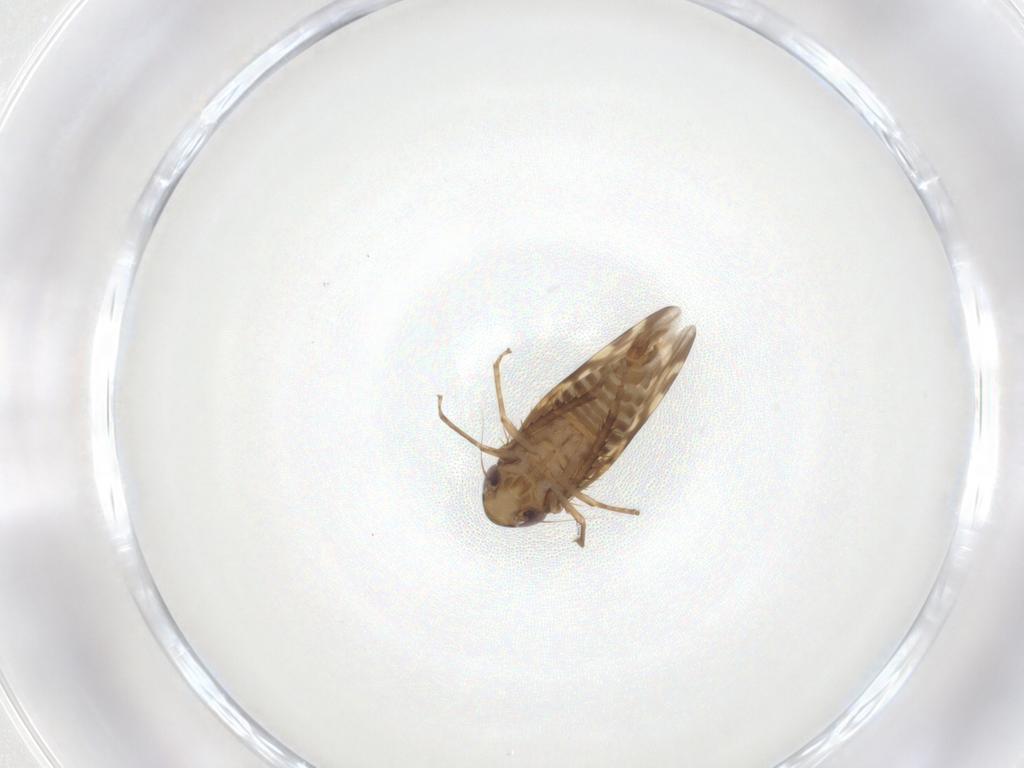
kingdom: Animalia
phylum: Arthropoda
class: Insecta
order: Hemiptera
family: Cicadellidae
